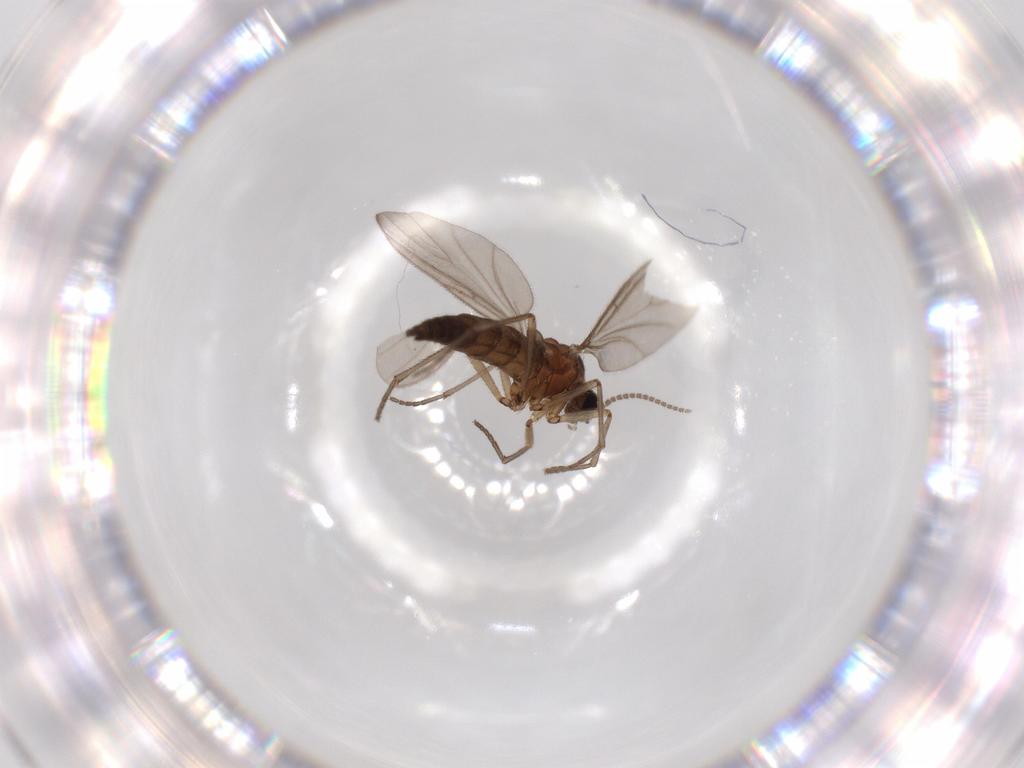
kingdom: Animalia
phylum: Arthropoda
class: Insecta
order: Diptera
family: Sciaridae
